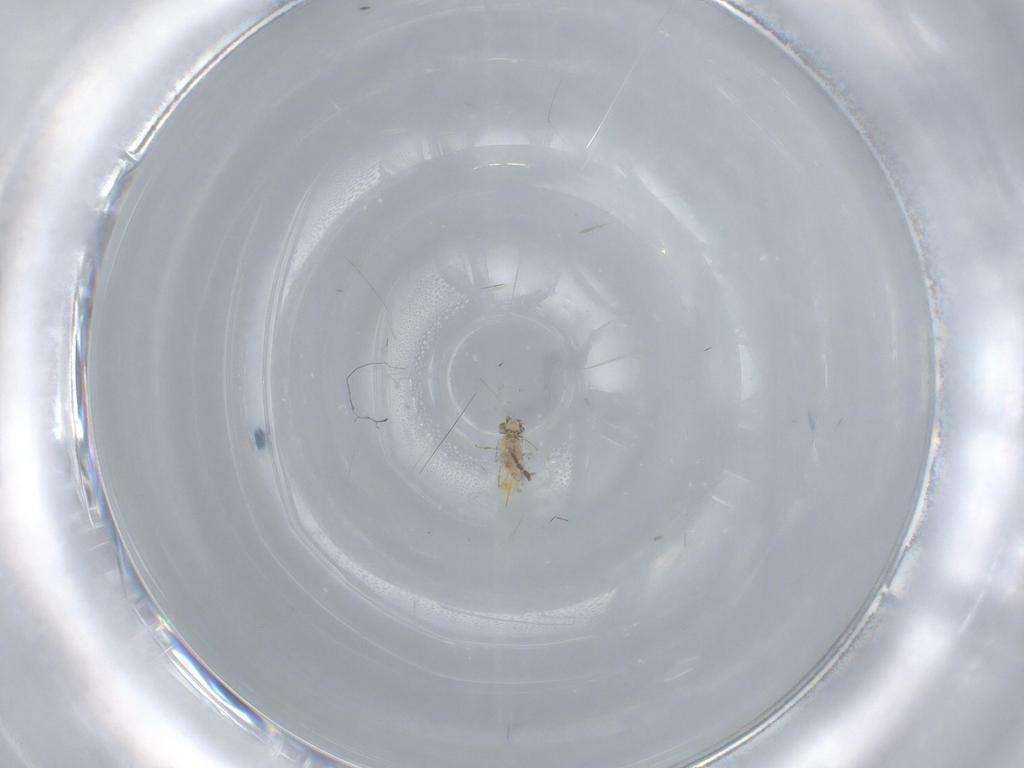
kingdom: Animalia
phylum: Arthropoda
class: Insecta
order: Hymenoptera
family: Aphelinidae
